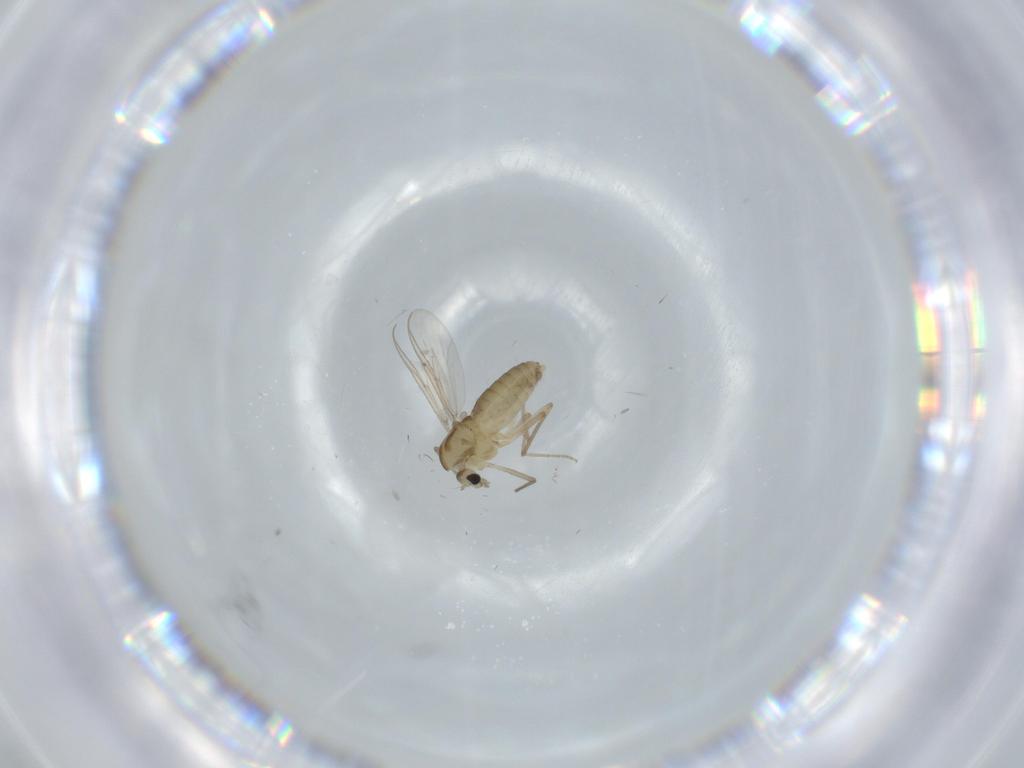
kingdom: Animalia
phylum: Arthropoda
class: Insecta
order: Diptera
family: Chironomidae
